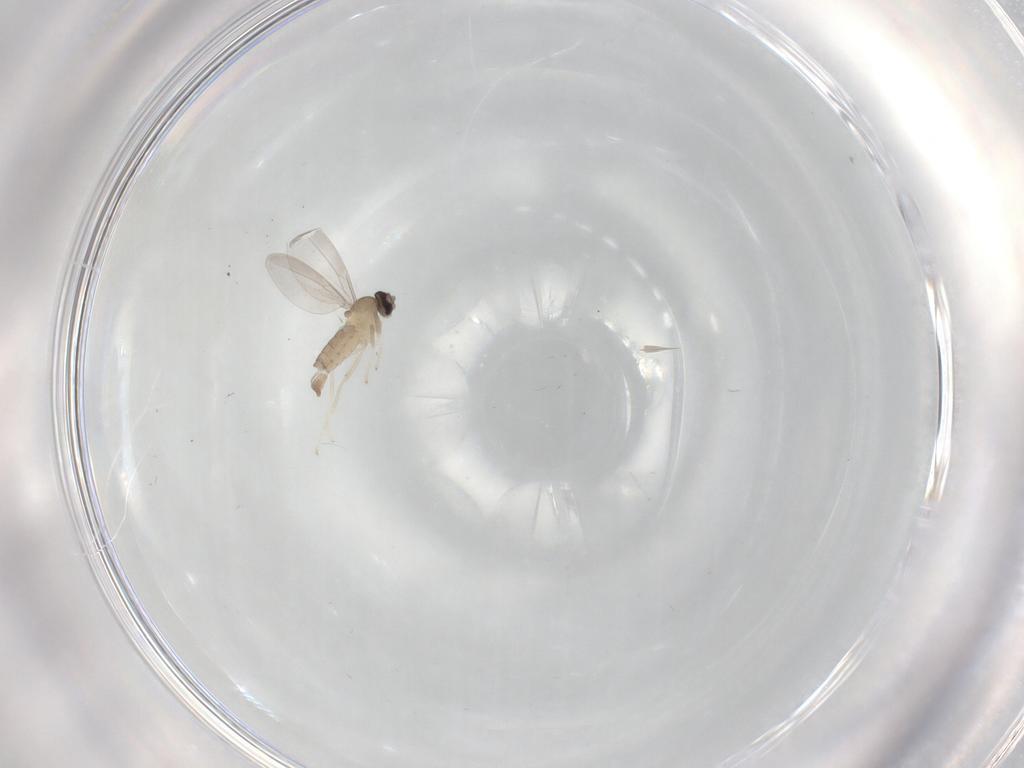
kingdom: Animalia
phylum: Arthropoda
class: Insecta
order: Diptera
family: Cecidomyiidae
